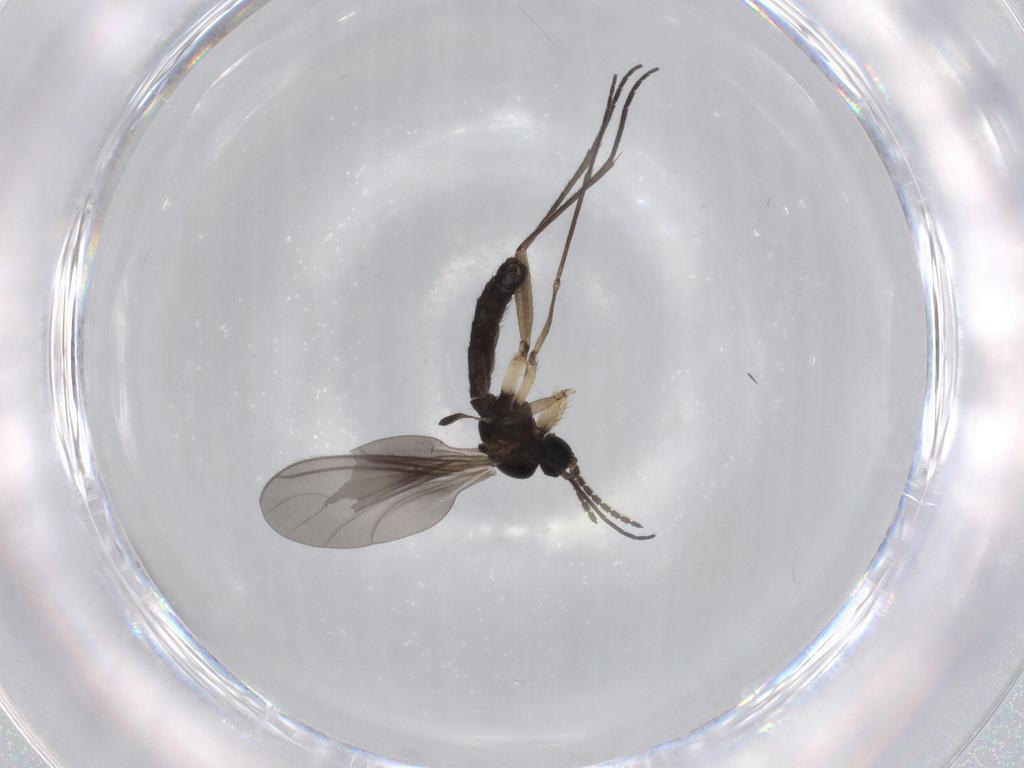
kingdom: Animalia
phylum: Arthropoda
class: Insecta
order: Diptera
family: Sciaridae
